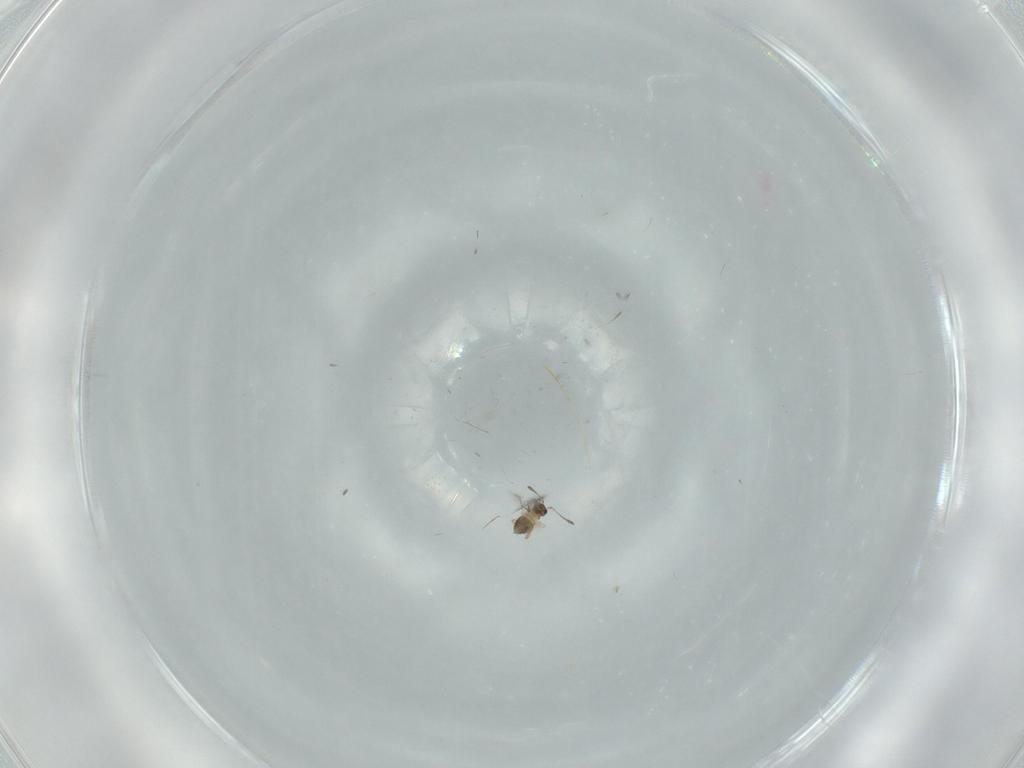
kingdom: Animalia
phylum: Arthropoda
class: Insecta
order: Hymenoptera
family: Mymaridae
